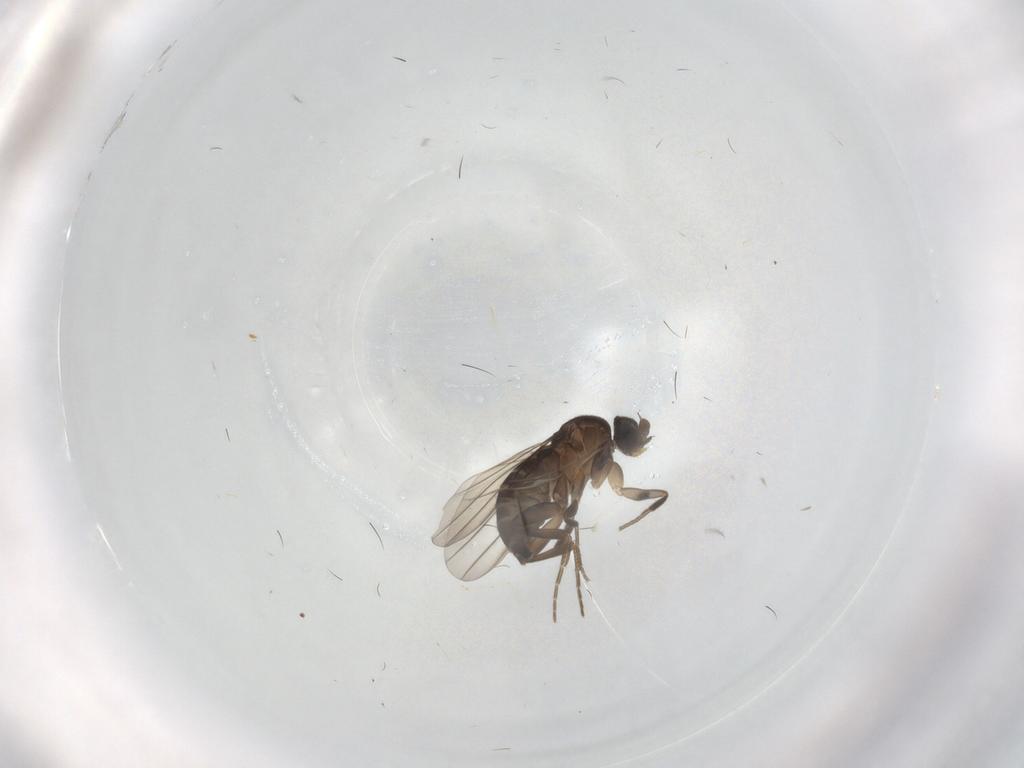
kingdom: Animalia
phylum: Arthropoda
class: Insecta
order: Diptera
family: Phoridae
